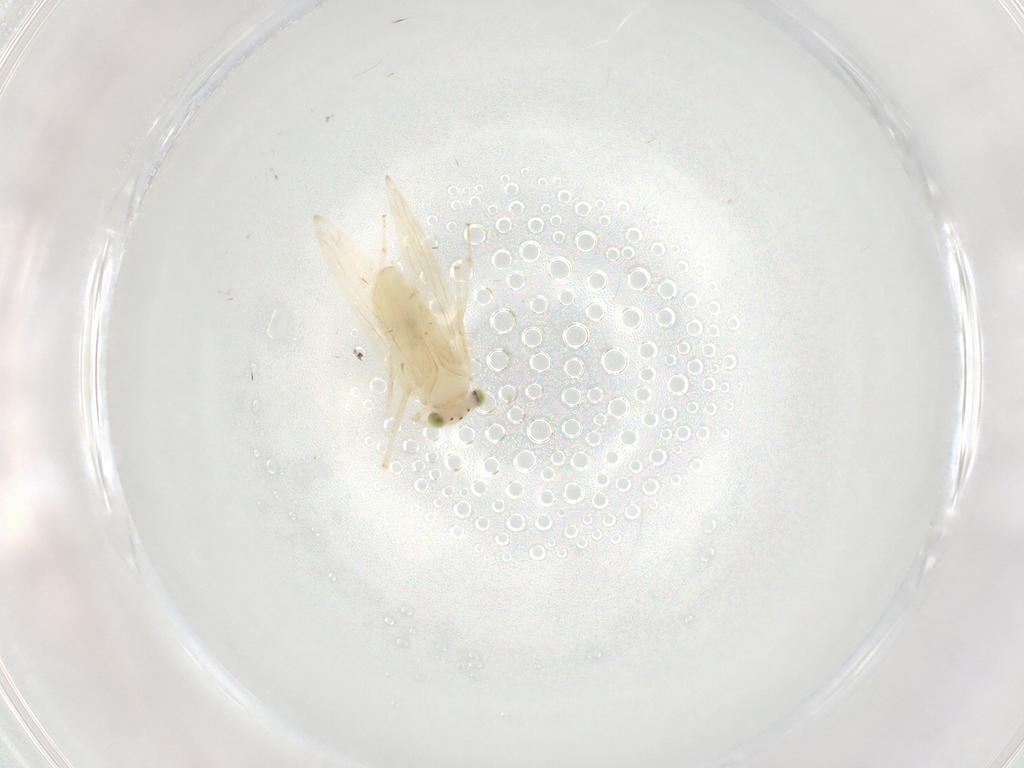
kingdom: Animalia
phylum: Arthropoda
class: Insecta
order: Psocodea
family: Lepidopsocidae
